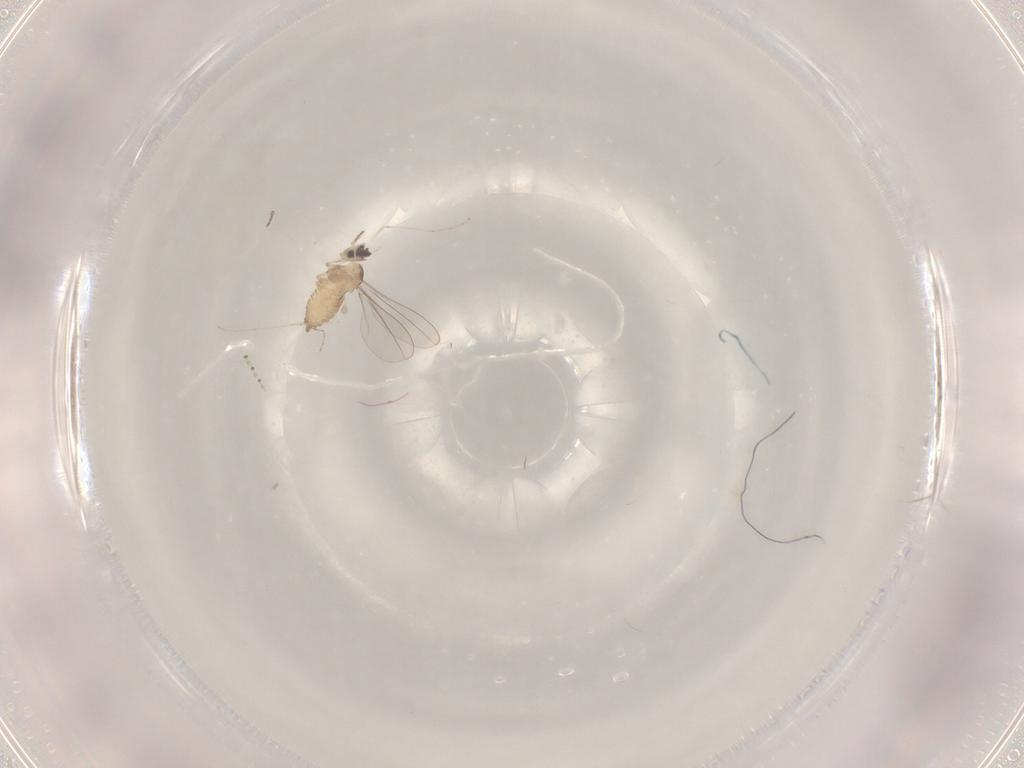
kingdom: Animalia
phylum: Arthropoda
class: Insecta
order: Diptera
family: Cecidomyiidae
